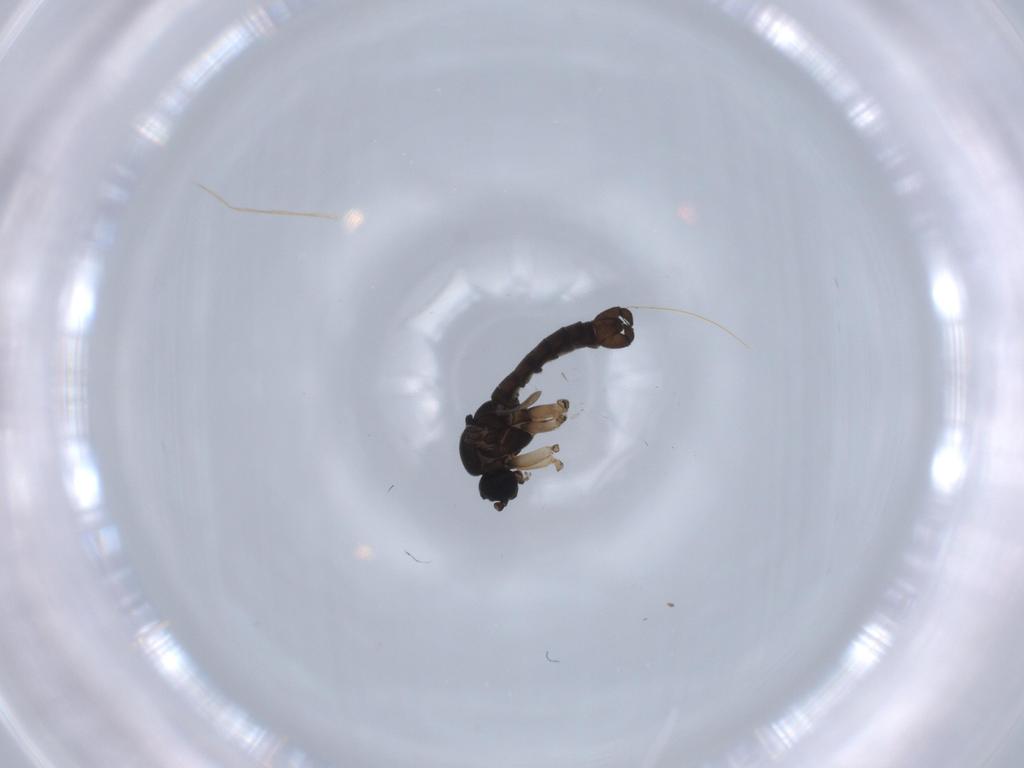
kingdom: Animalia
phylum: Arthropoda
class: Insecta
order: Diptera
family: Sciaridae
